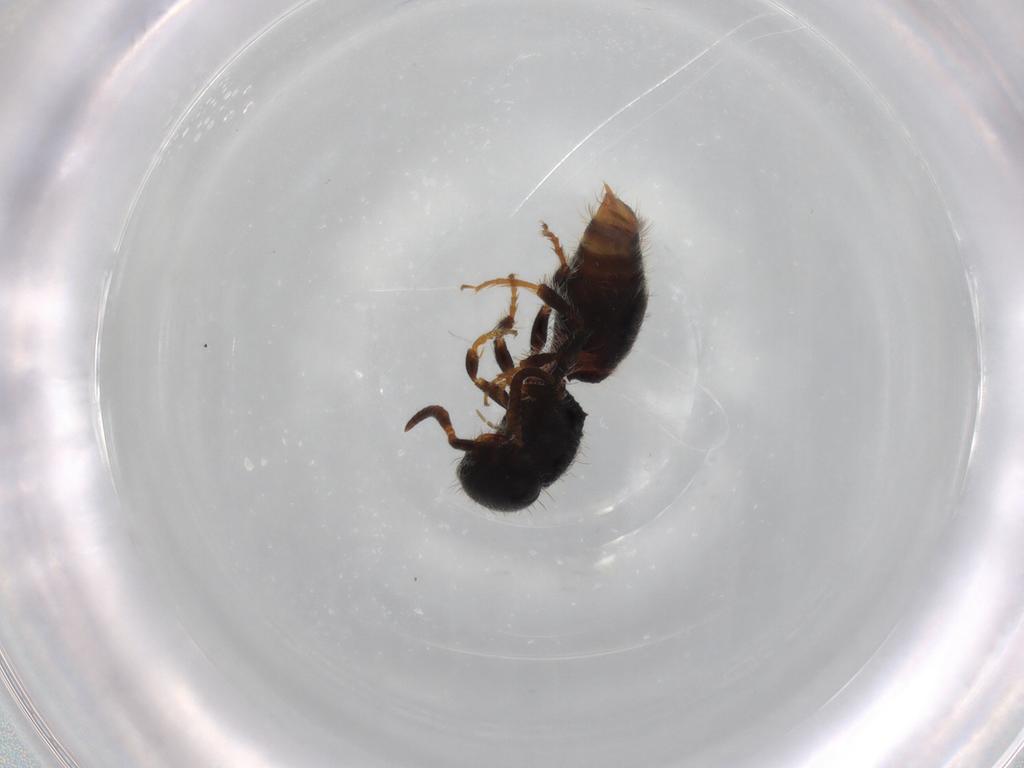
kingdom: Animalia
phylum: Arthropoda
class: Insecta
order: Hymenoptera
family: Mutillidae
